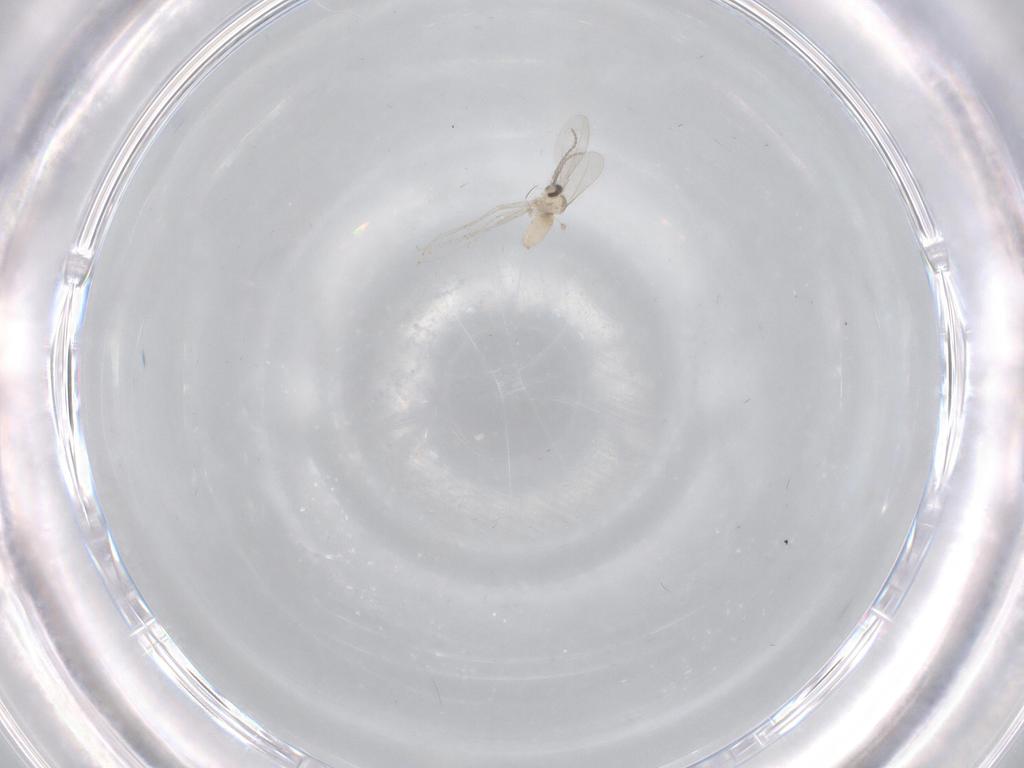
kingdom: Animalia
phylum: Arthropoda
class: Insecta
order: Diptera
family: Cecidomyiidae
